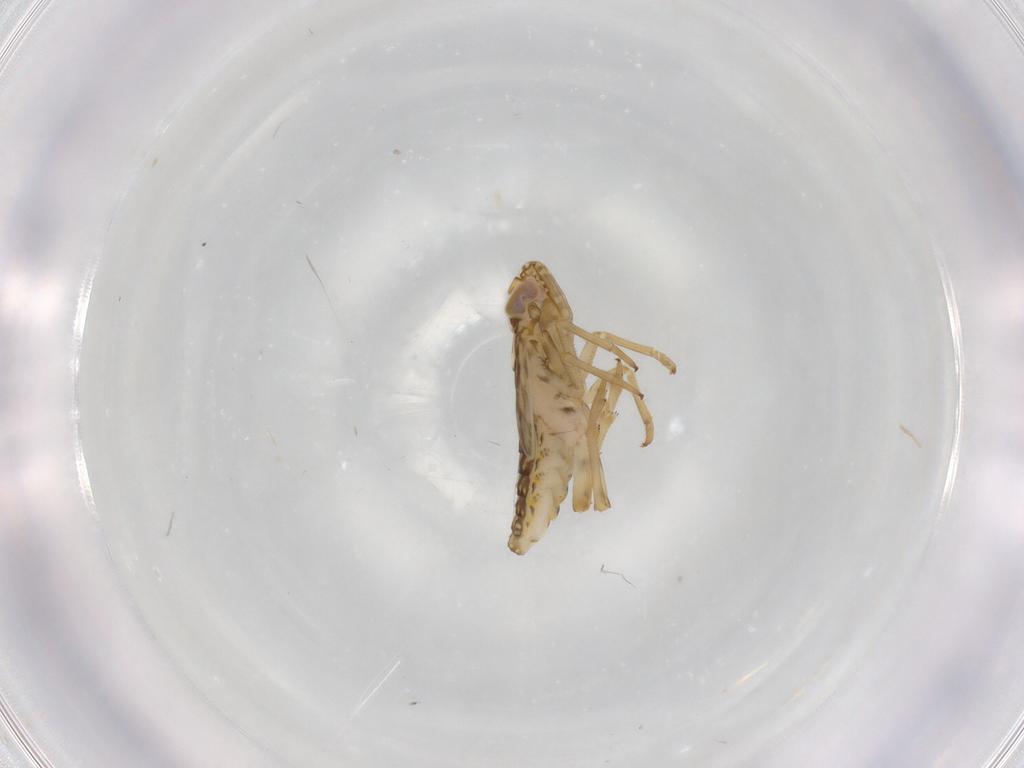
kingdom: Animalia
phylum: Arthropoda
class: Insecta
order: Hemiptera
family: Delphacidae
